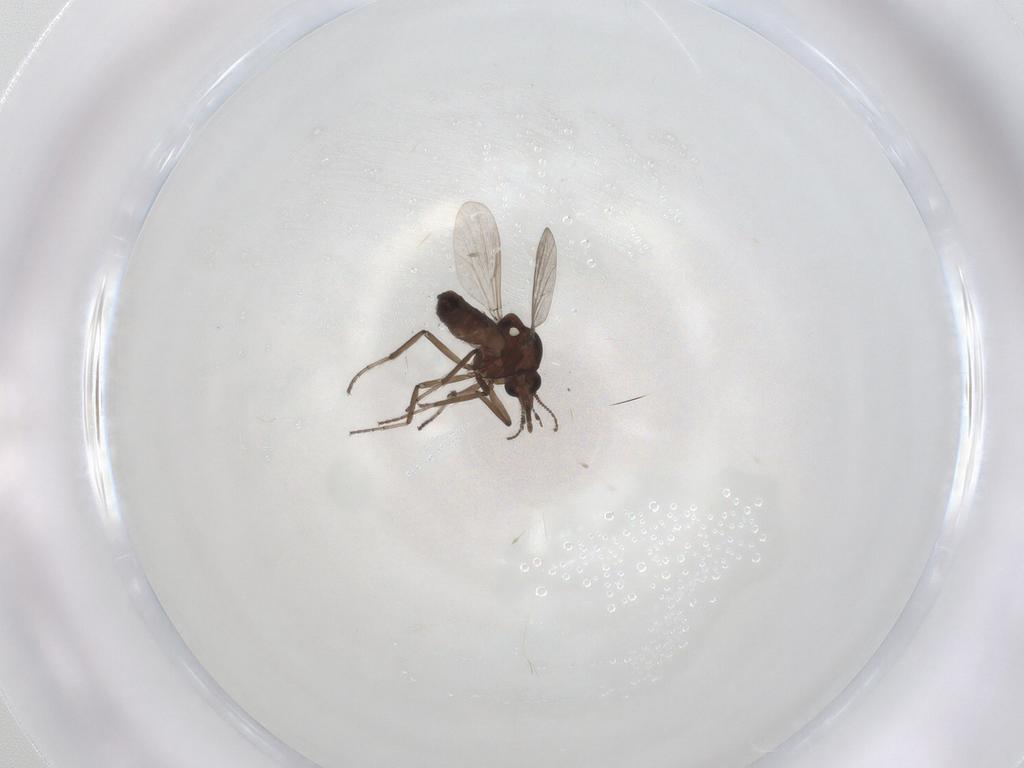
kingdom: Animalia
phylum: Arthropoda
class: Insecta
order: Diptera
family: Ceratopogonidae
